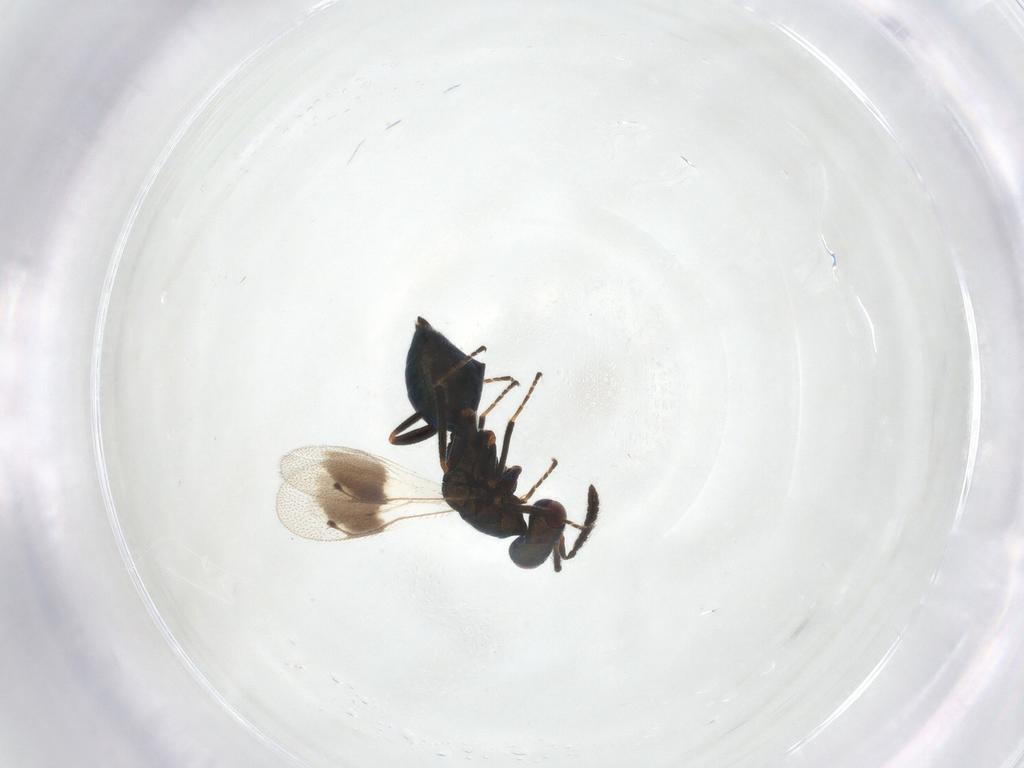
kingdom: Animalia
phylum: Arthropoda
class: Insecta
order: Hymenoptera
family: Pteromalidae
